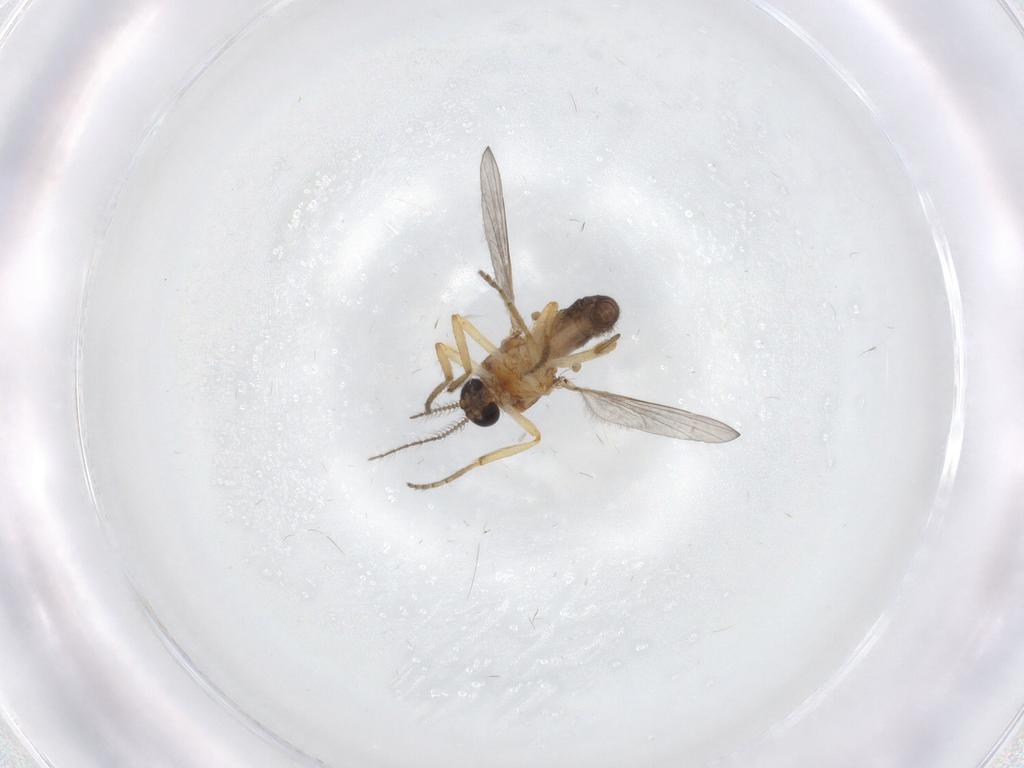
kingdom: Animalia
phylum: Arthropoda
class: Insecta
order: Diptera
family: Ceratopogonidae
